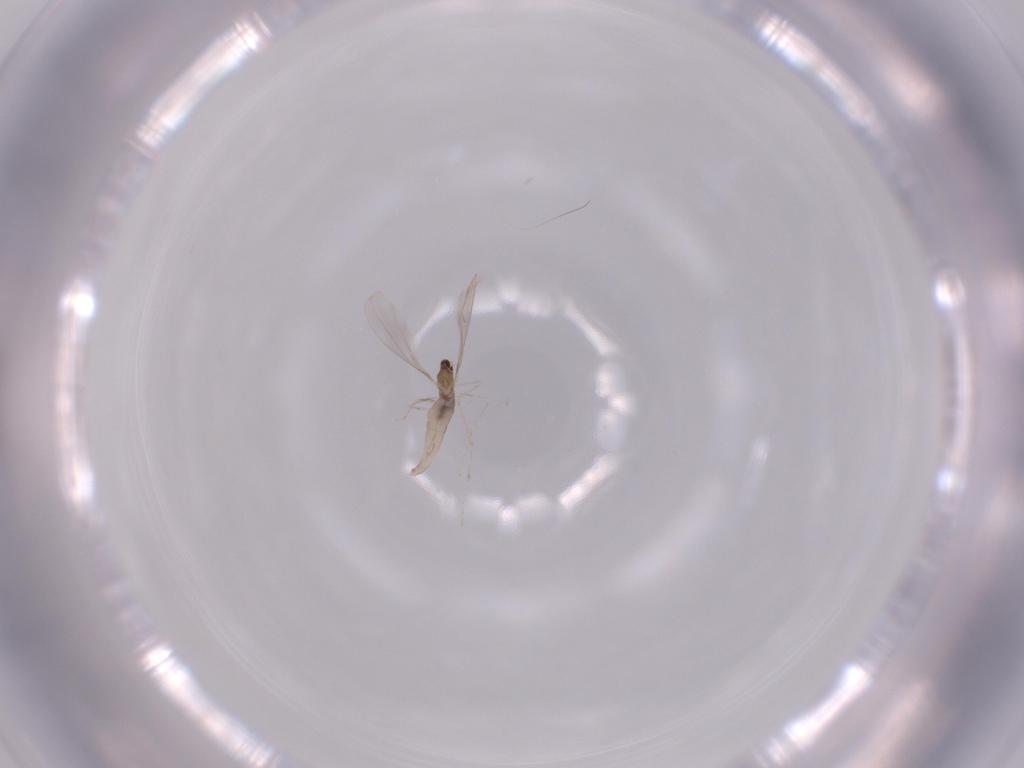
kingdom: Animalia
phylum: Arthropoda
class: Insecta
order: Diptera
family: Cecidomyiidae
